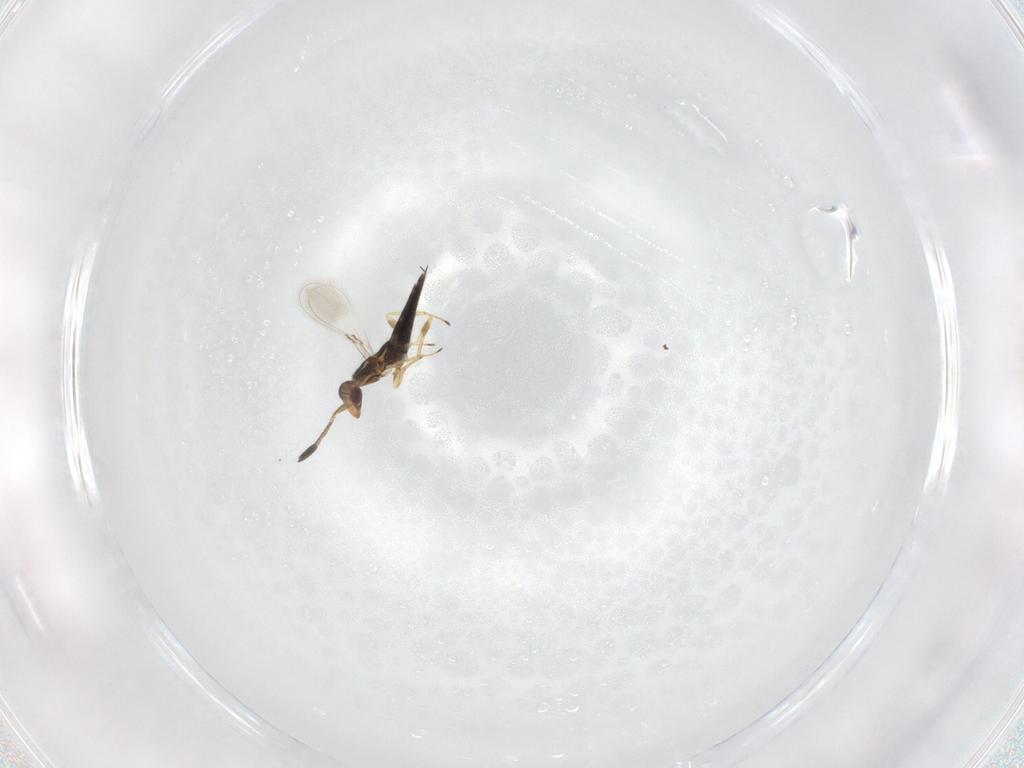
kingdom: Animalia
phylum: Arthropoda
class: Insecta
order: Hymenoptera
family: Mymaridae
